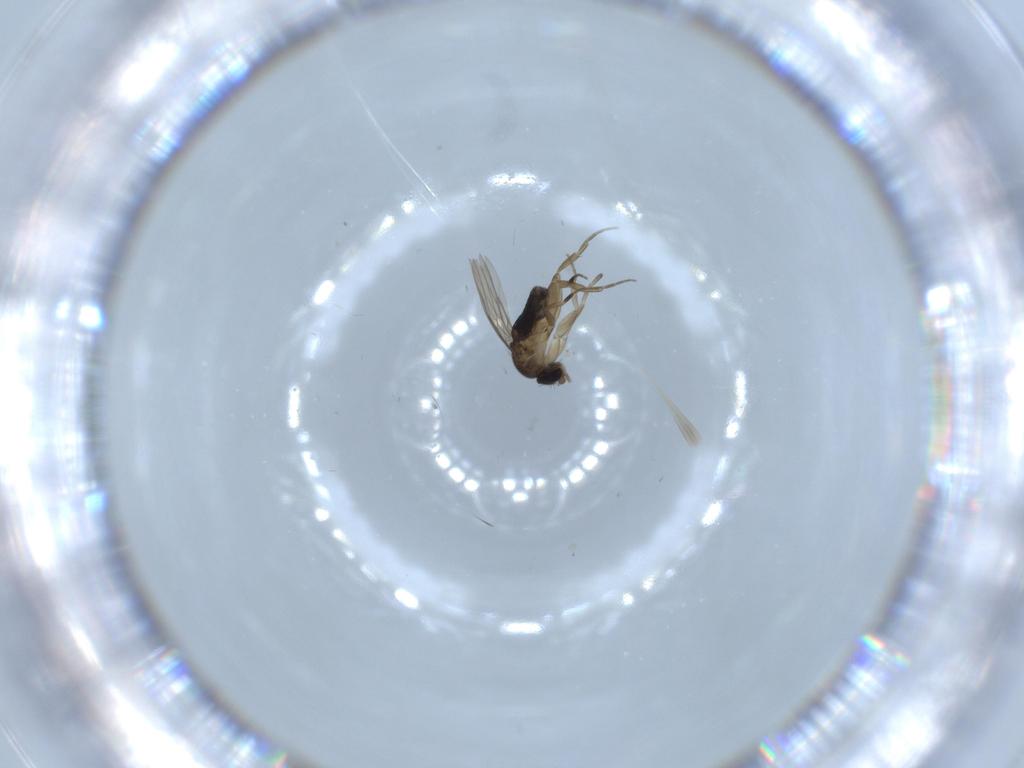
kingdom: Animalia
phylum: Arthropoda
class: Insecta
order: Diptera
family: Phoridae
